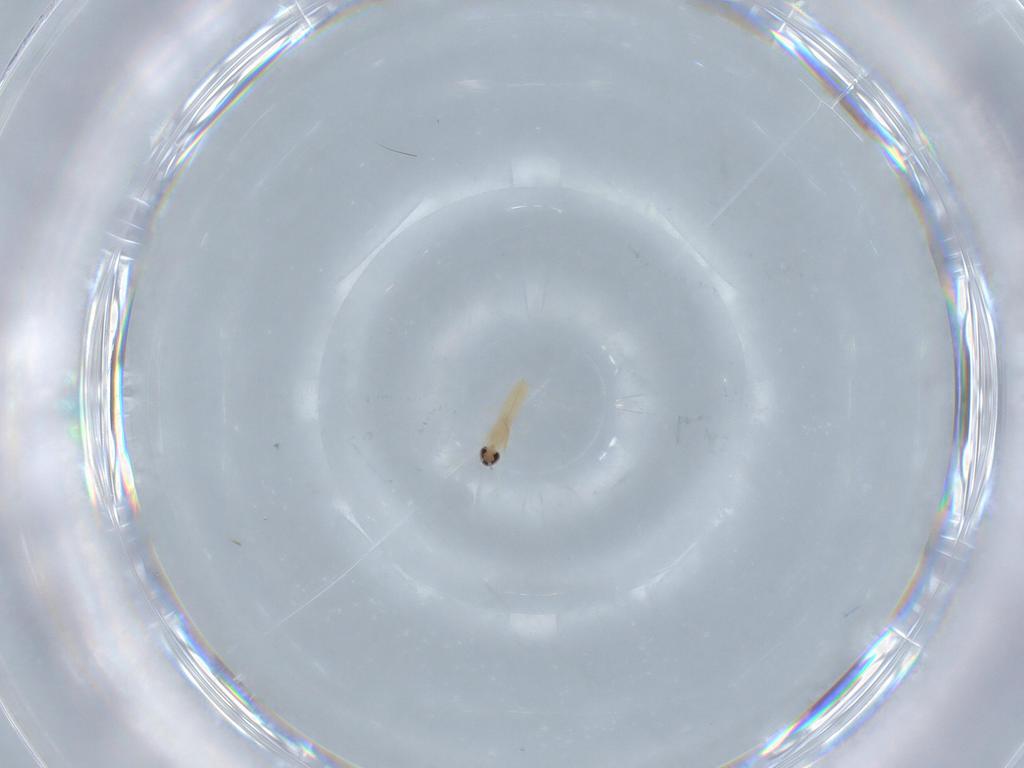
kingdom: Animalia
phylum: Arthropoda
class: Insecta
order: Diptera
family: Cecidomyiidae
